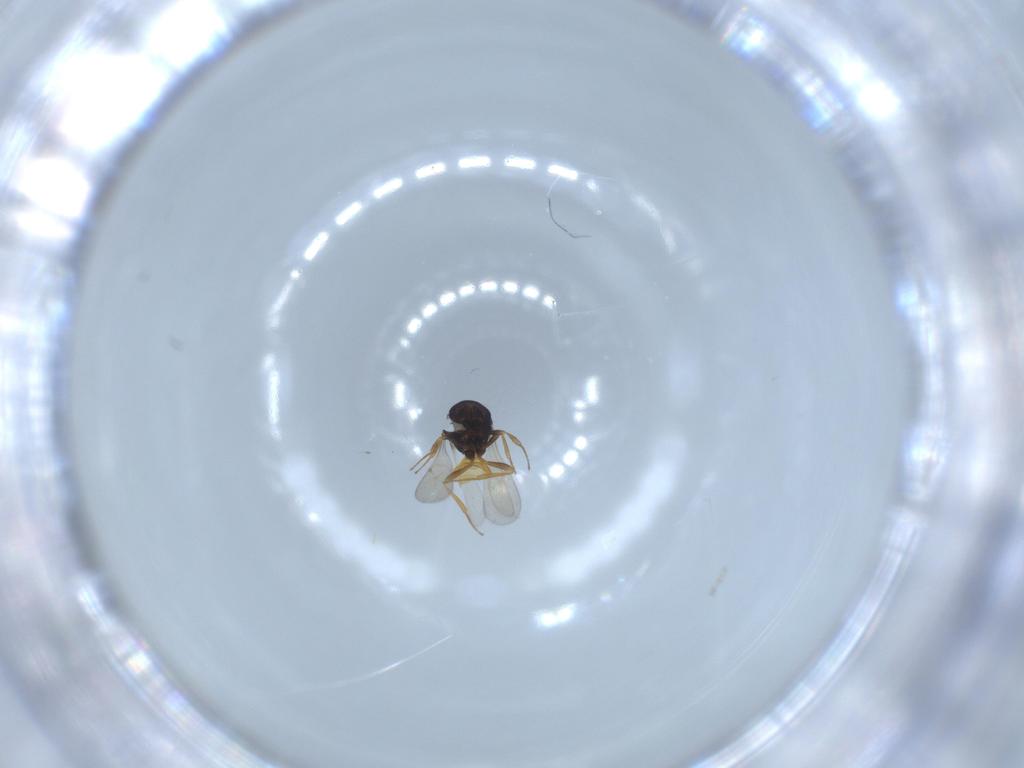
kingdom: Animalia
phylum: Arthropoda
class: Insecta
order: Hymenoptera
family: Scelionidae
